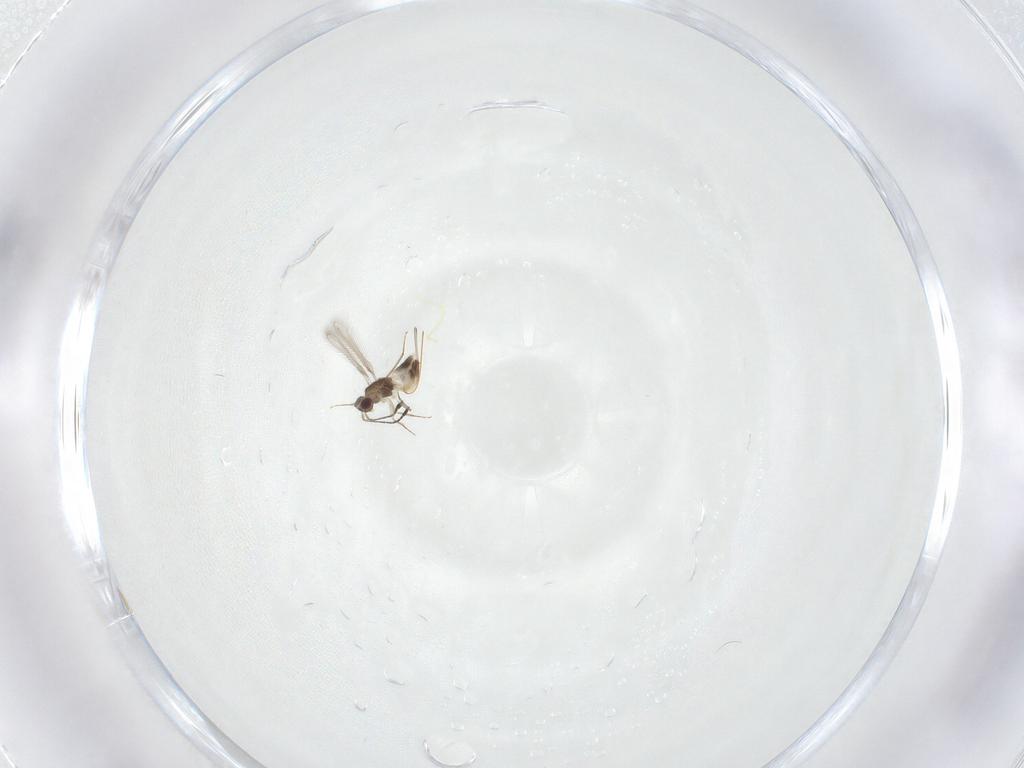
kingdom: Animalia
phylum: Arthropoda
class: Insecta
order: Hymenoptera
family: Mymaridae
